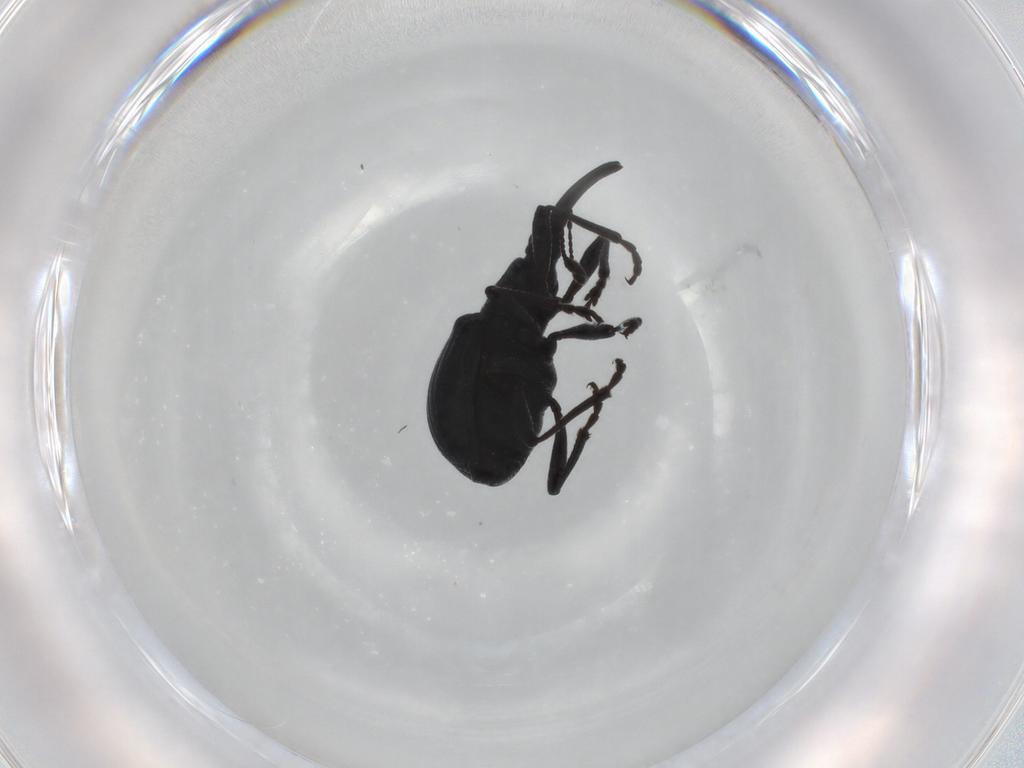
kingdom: Animalia
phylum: Arthropoda
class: Insecta
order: Coleoptera
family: Brentidae
